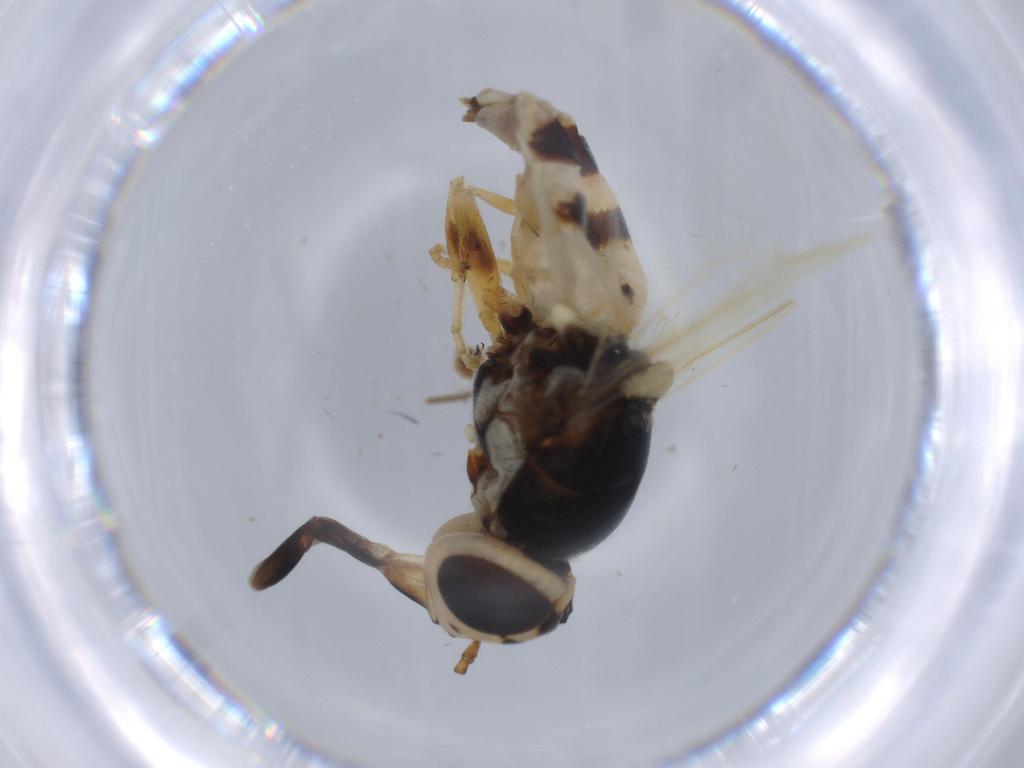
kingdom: Animalia
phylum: Arthropoda
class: Insecta
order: Diptera
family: Stratiomyidae
